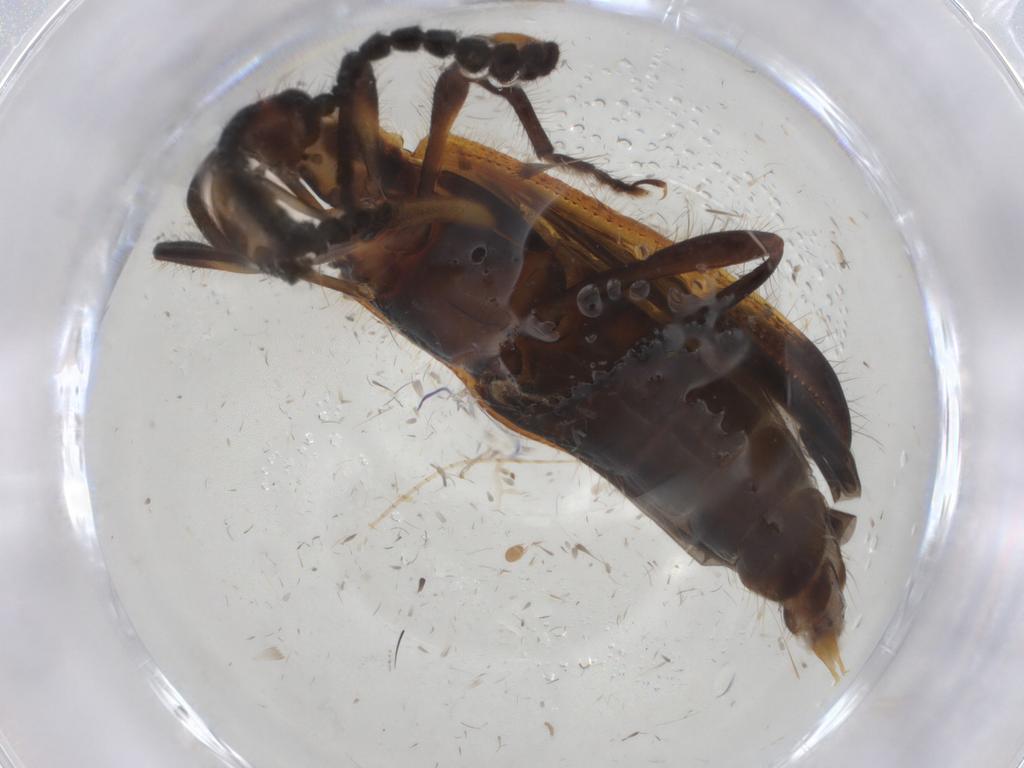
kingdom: Animalia
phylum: Arthropoda
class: Insecta
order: Coleoptera
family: Tenebrionidae
